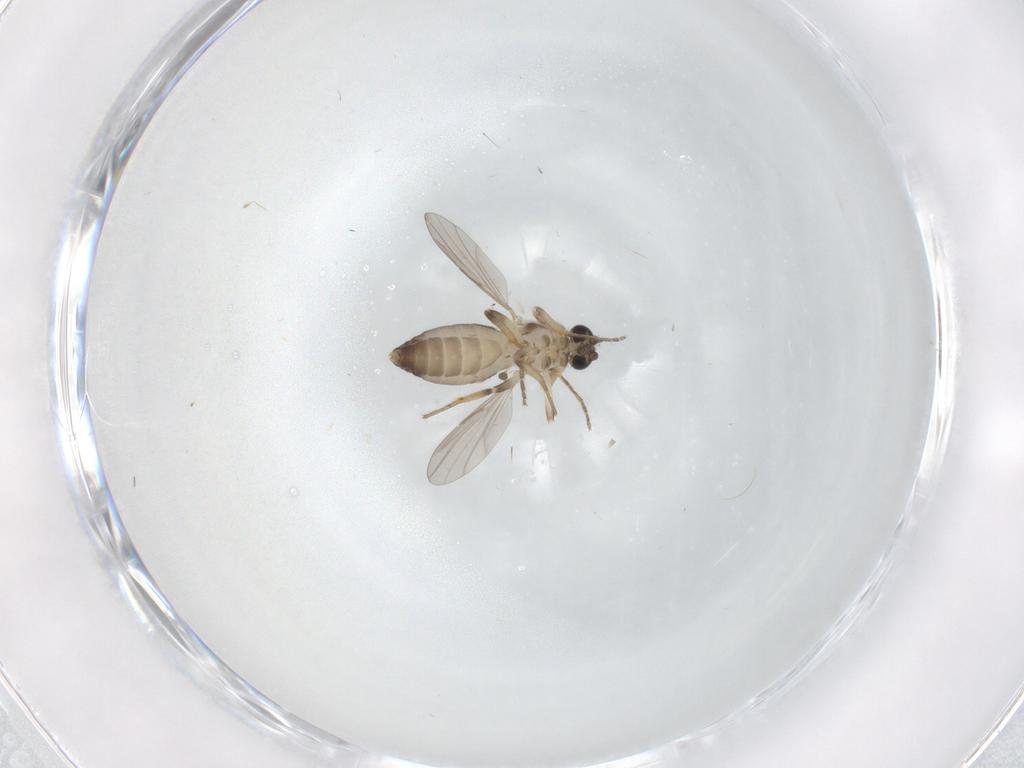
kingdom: Animalia
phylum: Arthropoda
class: Insecta
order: Diptera
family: Ceratopogonidae
